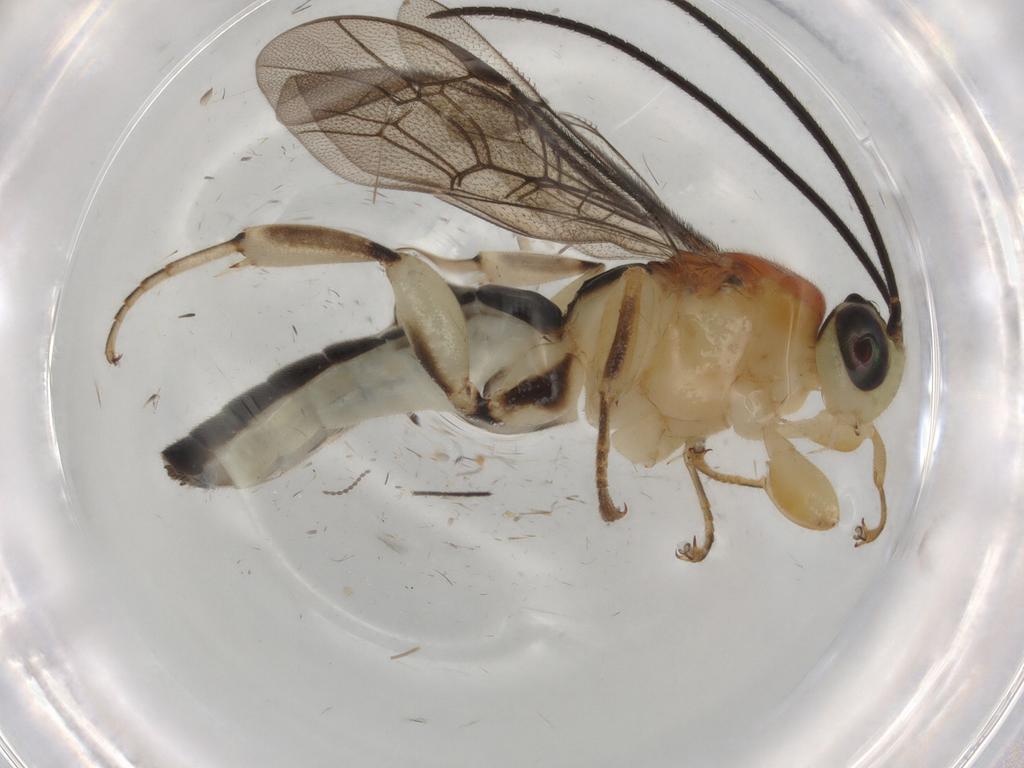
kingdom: Animalia
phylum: Arthropoda
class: Insecta
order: Hymenoptera
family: Platygastridae
